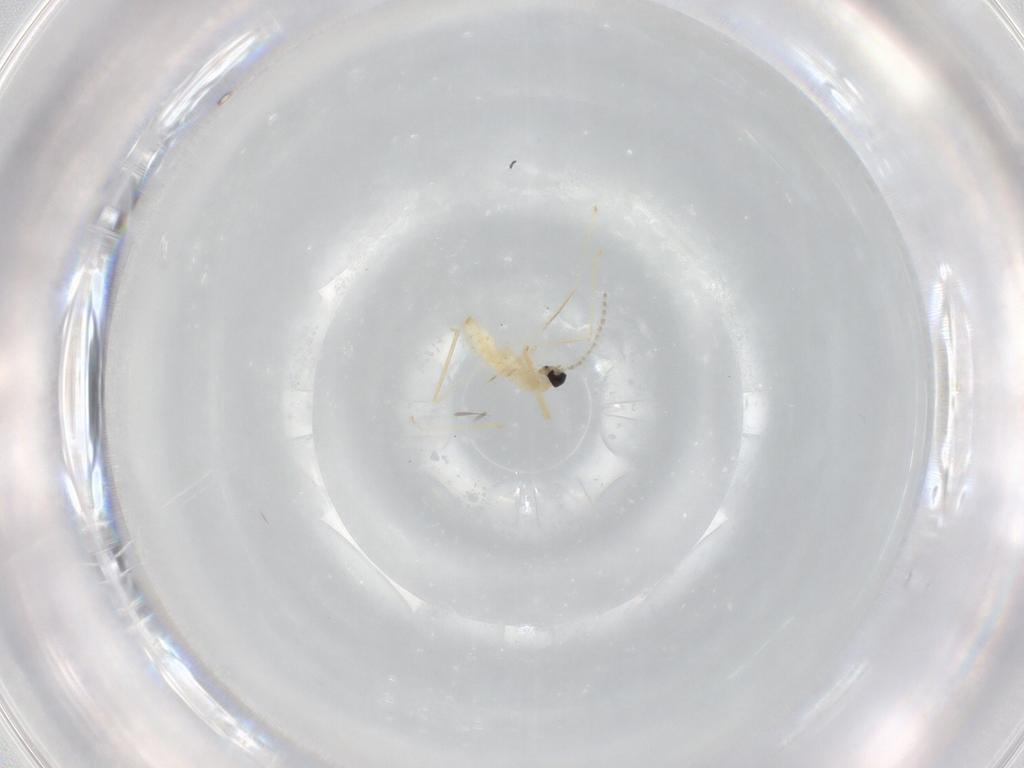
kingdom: Animalia
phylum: Arthropoda
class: Insecta
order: Diptera
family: Cecidomyiidae
